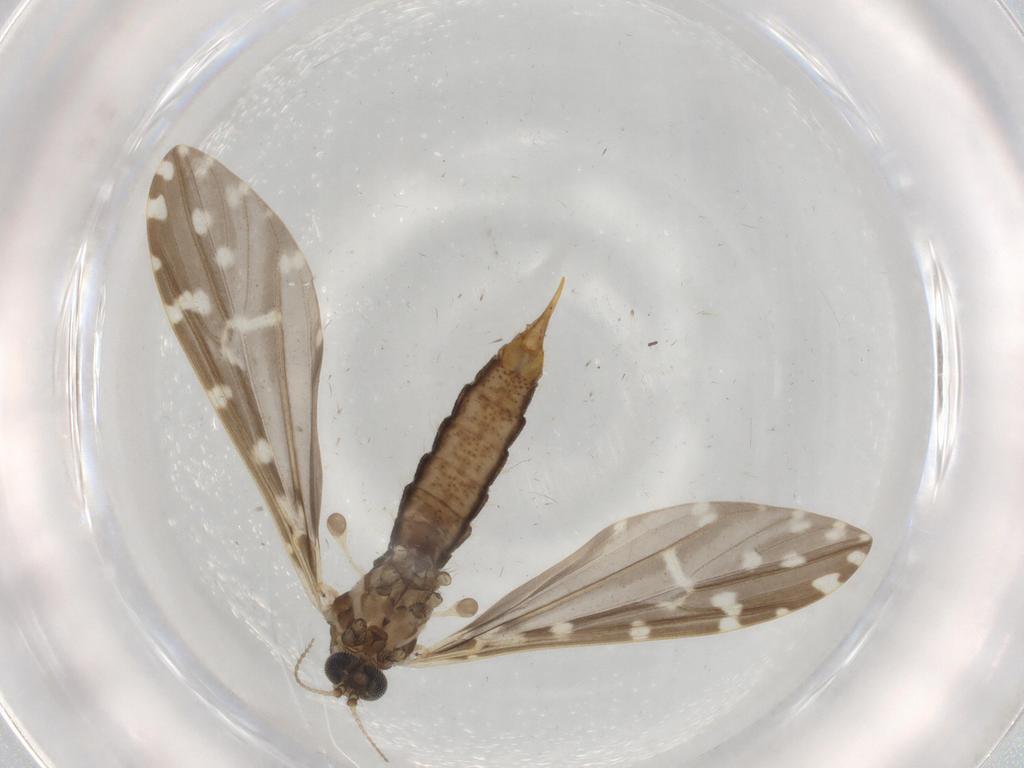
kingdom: Animalia
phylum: Arthropoda
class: Insecta
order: Diptera
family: Psychodidae
